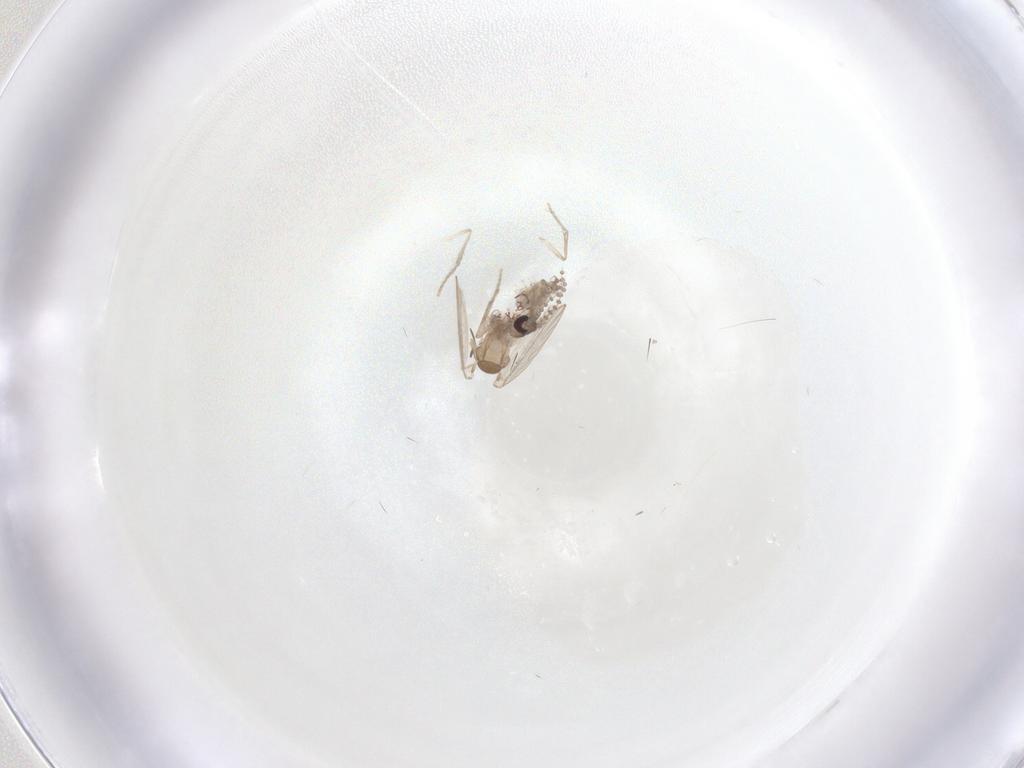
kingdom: Animalia
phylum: Arthropoda
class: Insecta
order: Diptera
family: Psychodidae
